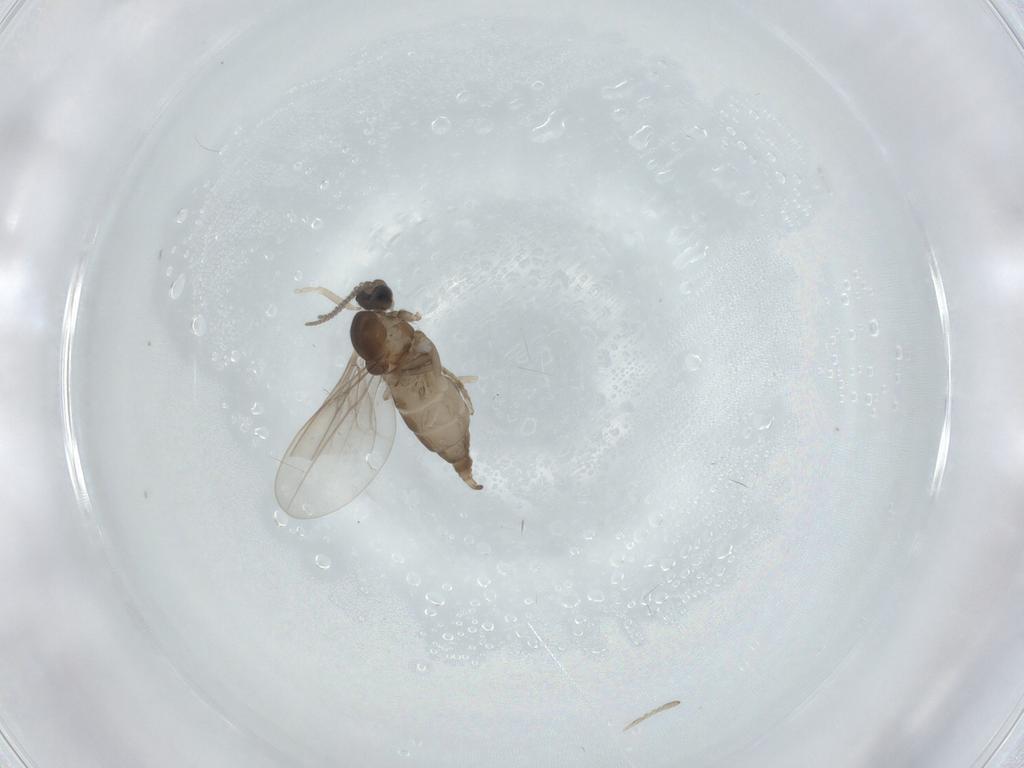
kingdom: Animalia
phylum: Arthropoda
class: Insecta
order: Diptera
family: Cecidomyiidae
